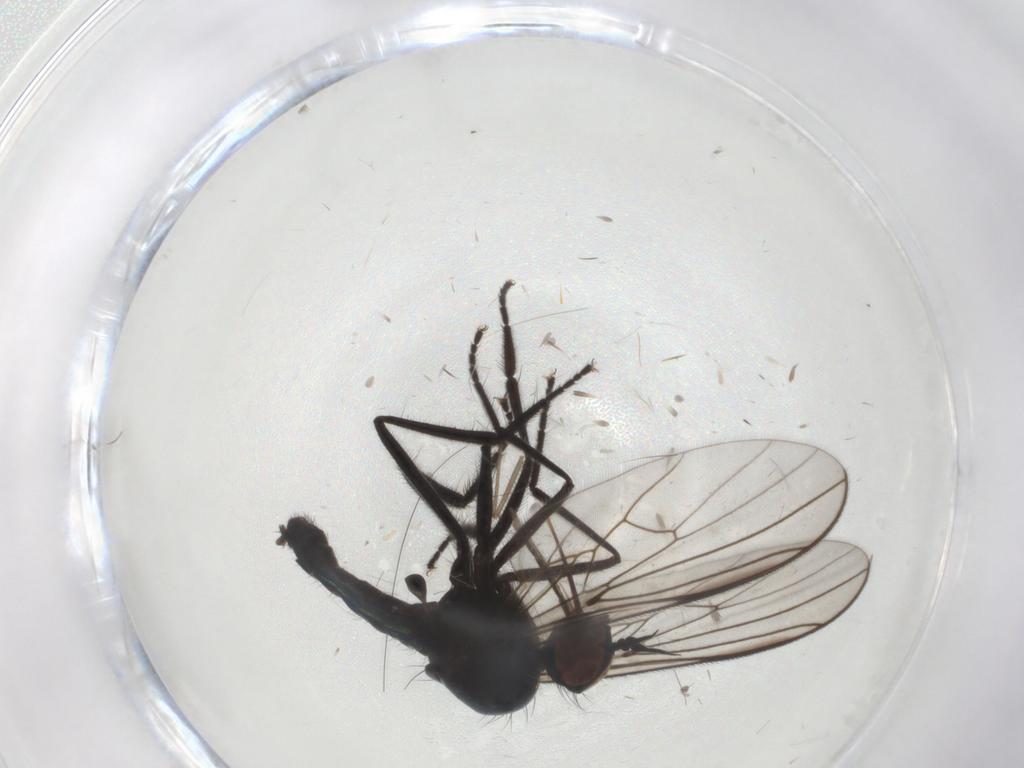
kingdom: Animalia
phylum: Arthropoda
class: Insecta
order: Diptera
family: Empididae
